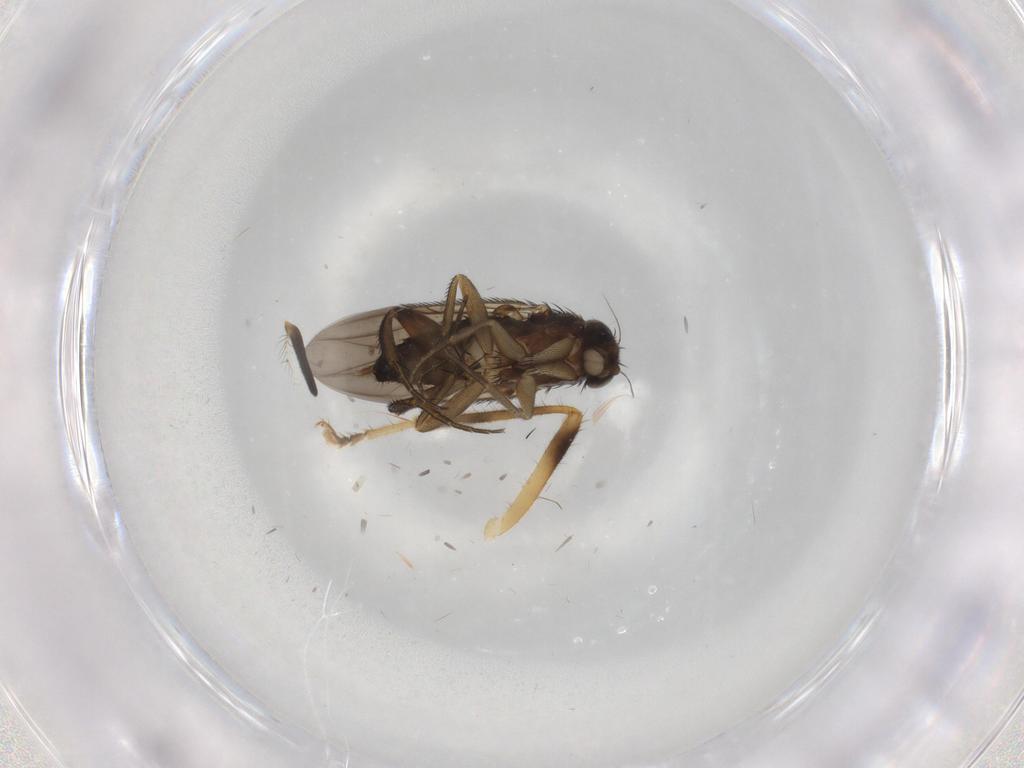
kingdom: Animalia
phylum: Arthropoda
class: Insecta
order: Diptera
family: Phoridae
